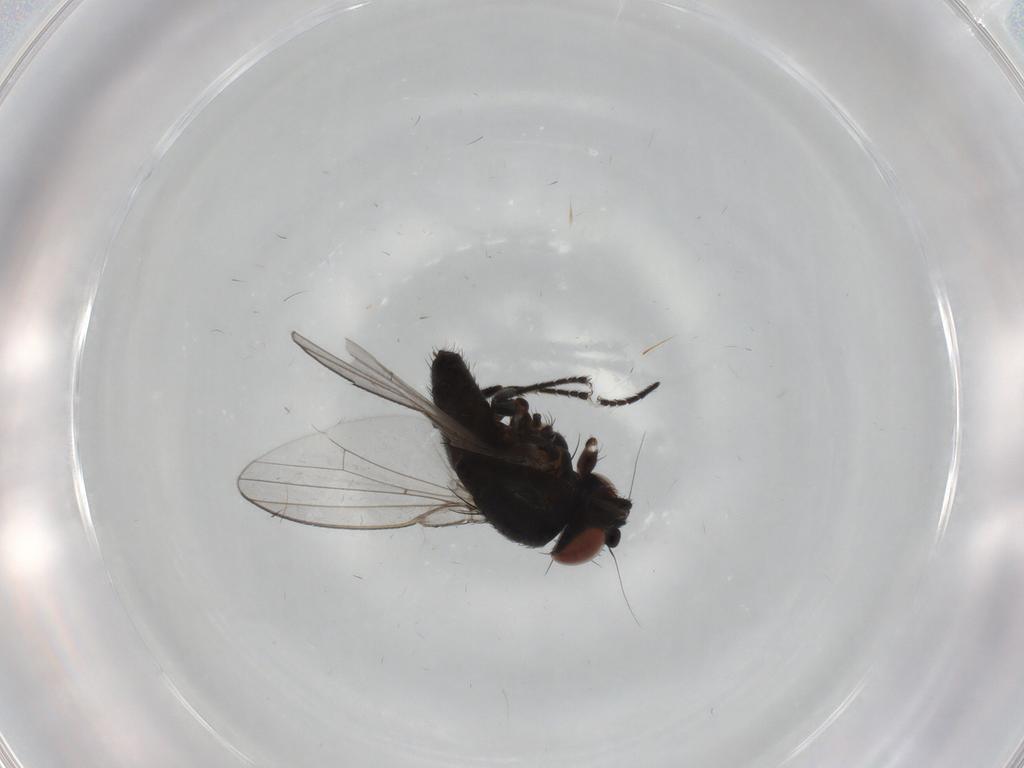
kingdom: Animalia
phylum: Arthropoda
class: Insecta
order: Diptera
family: Milichiidae
